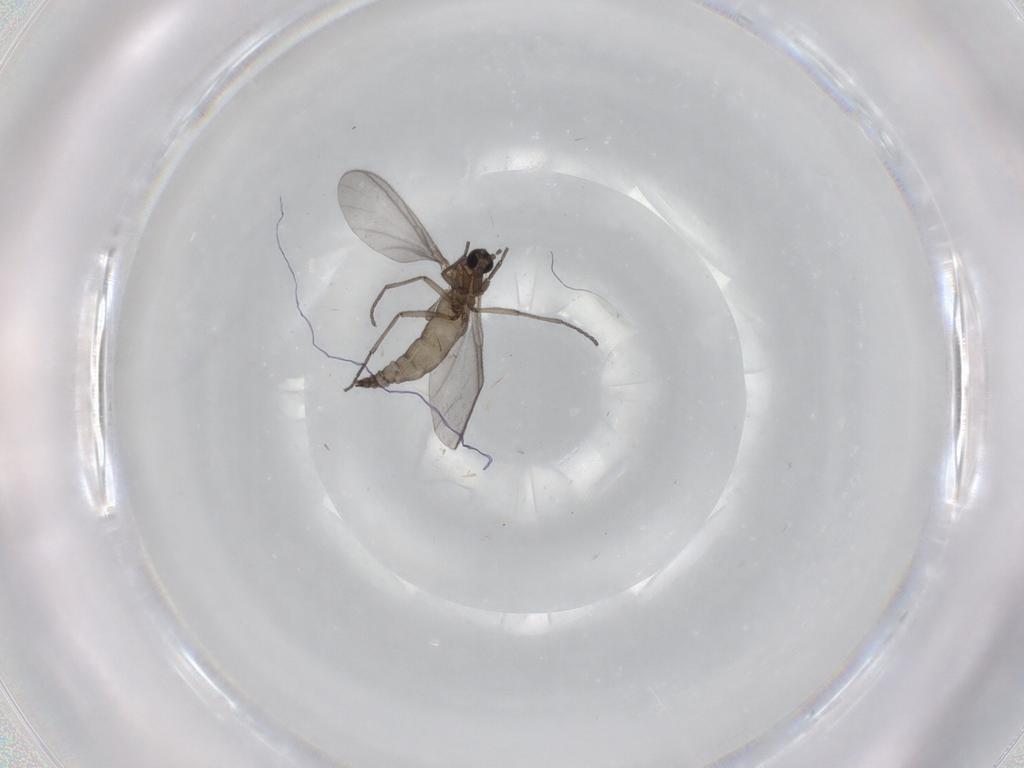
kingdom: Animalia
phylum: Arthropoda
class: Insecta
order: Diptera
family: Sciaridae
